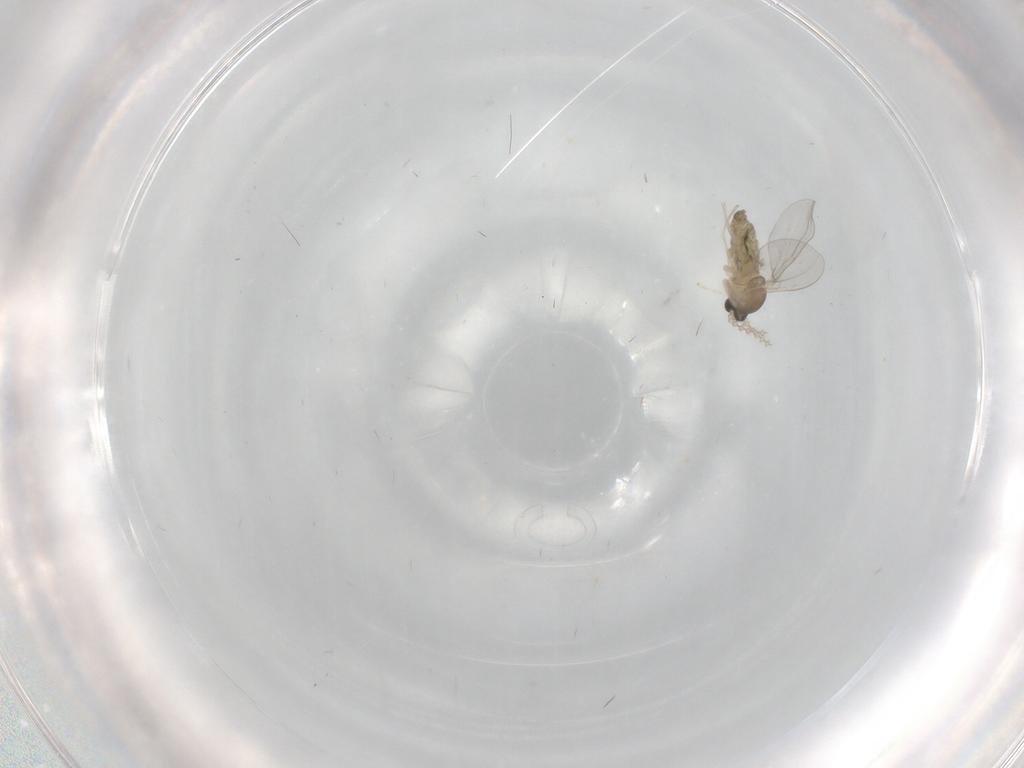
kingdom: Animalia
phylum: Arthropoda
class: Insecta
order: Diptera
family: Cecidomyiidae
